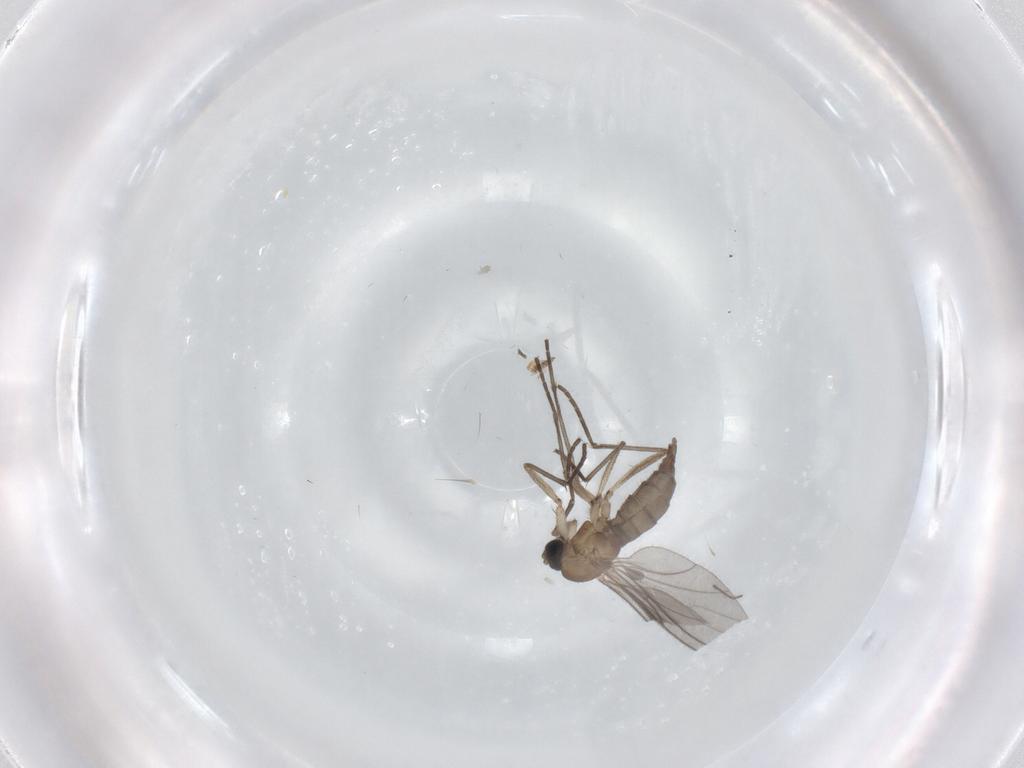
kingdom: Animalia
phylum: Arthropoda
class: Insecta
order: Diptera
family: Sciaridae
